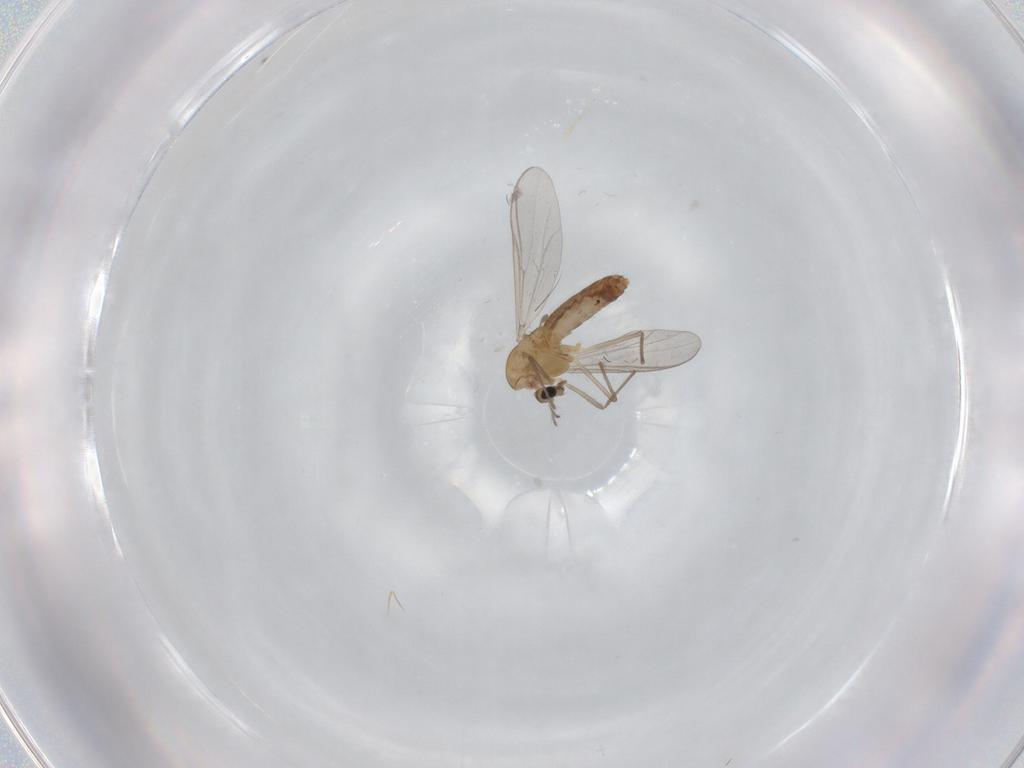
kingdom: Animalia
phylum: Arthropoda
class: Insecta
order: Diptera
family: Chironomidae
